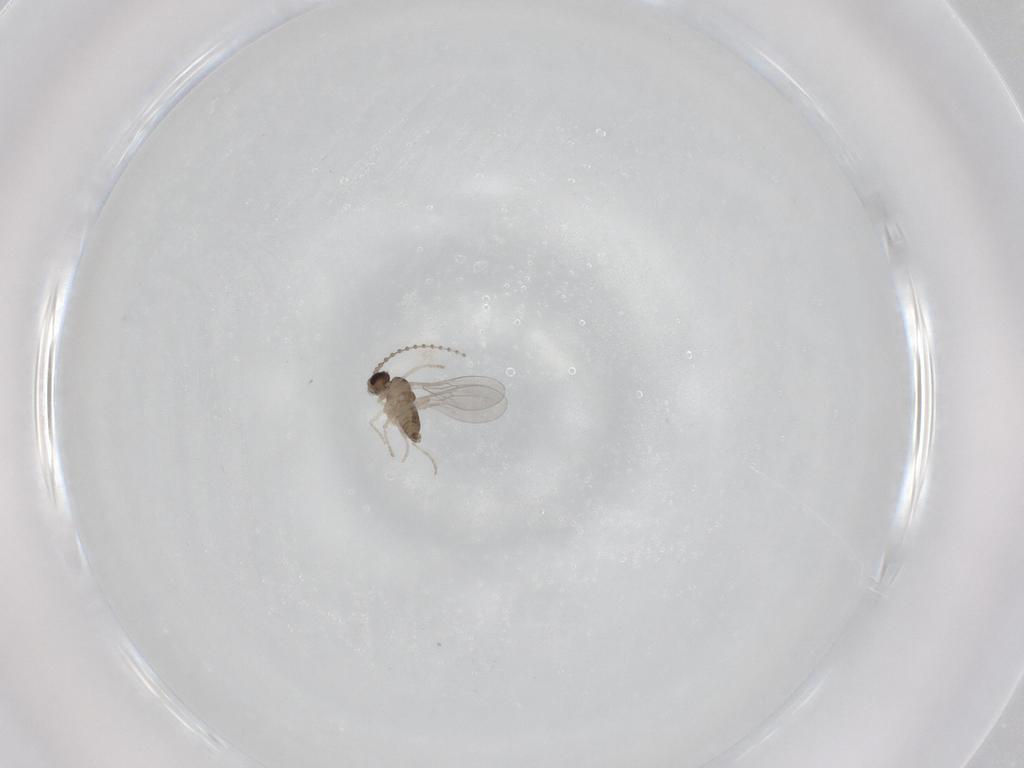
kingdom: Animalia
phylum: Arthropoda
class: Insecta
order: Diptera
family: Cecidomyiidae
